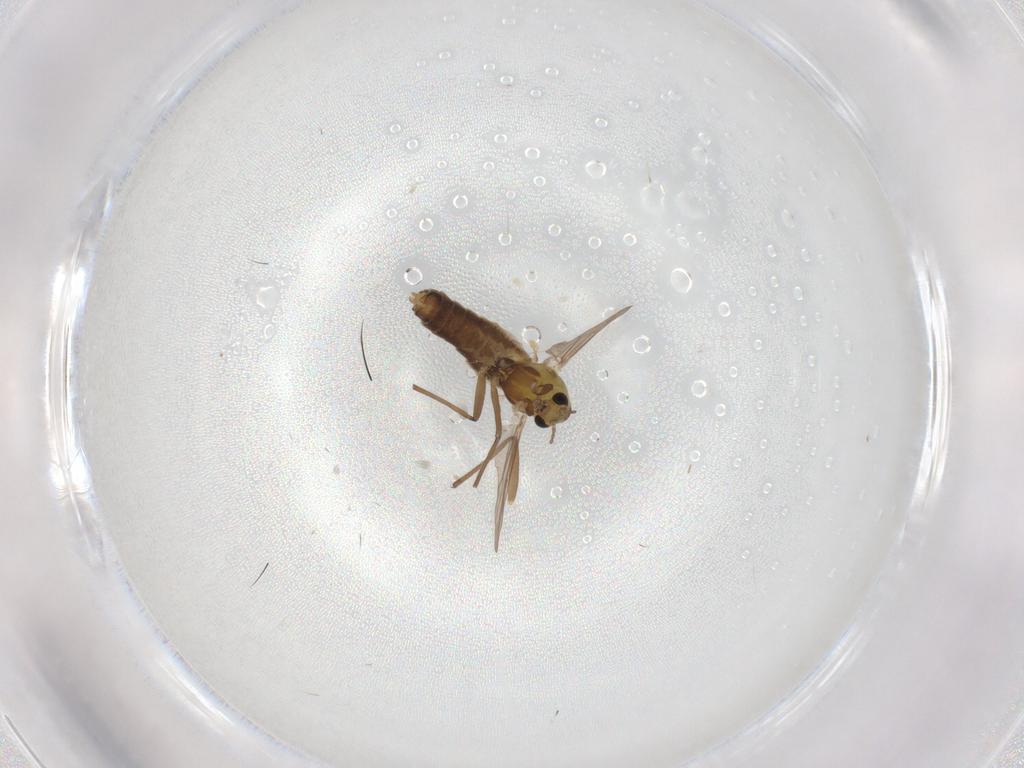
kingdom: Animalia
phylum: Arthropoda
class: Insecta
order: Diptera
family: Chironomidae
